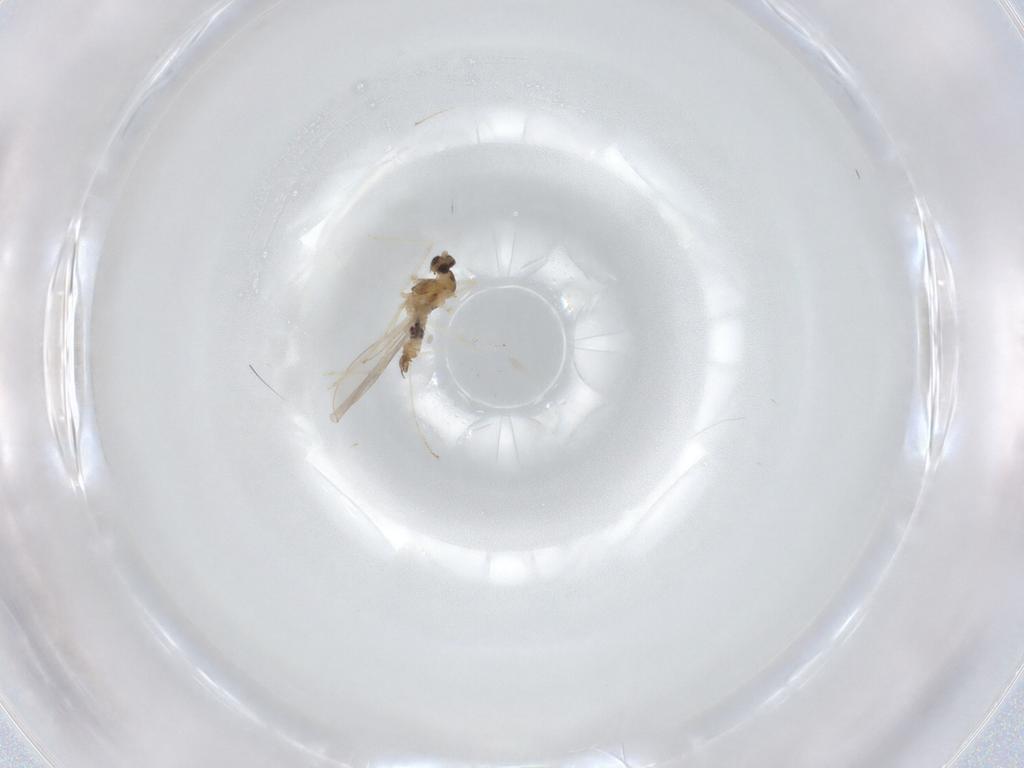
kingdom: Animalia
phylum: Arthropoda
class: Insecta
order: Diptera
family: Cecidomyiidae
